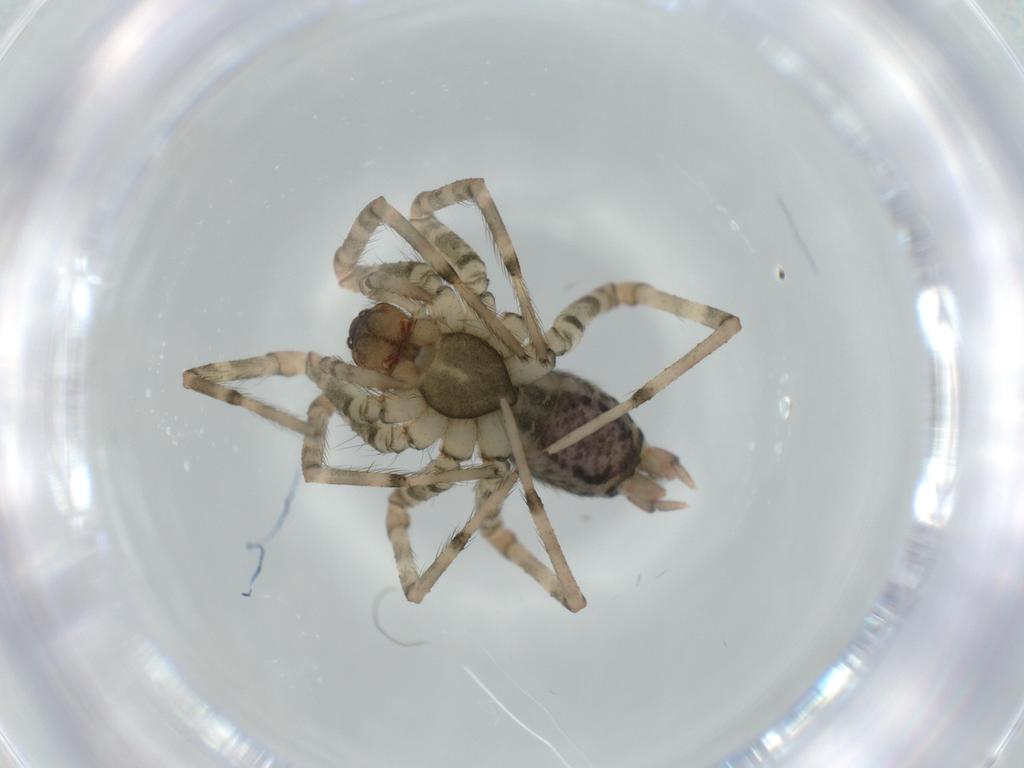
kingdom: Animalia
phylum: Arthropoda
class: Arachnida
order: Araneae
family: Agelenidae
